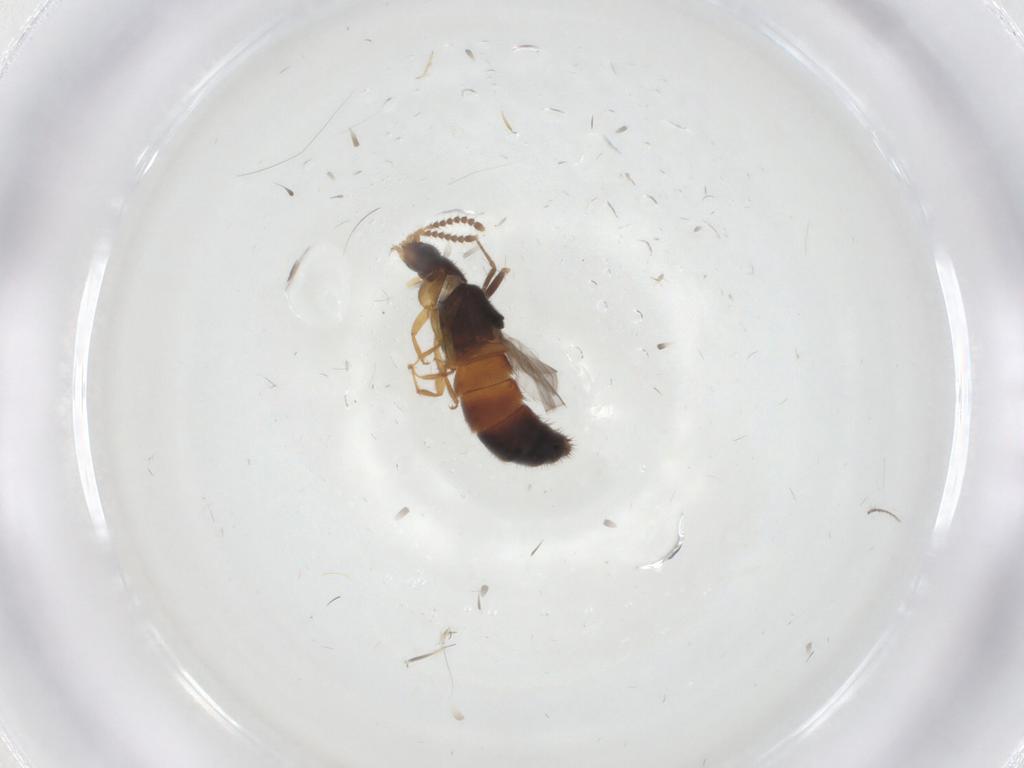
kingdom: Animalia
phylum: Arthropoda
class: Insecta
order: Coleoptera
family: Staphylinidae
